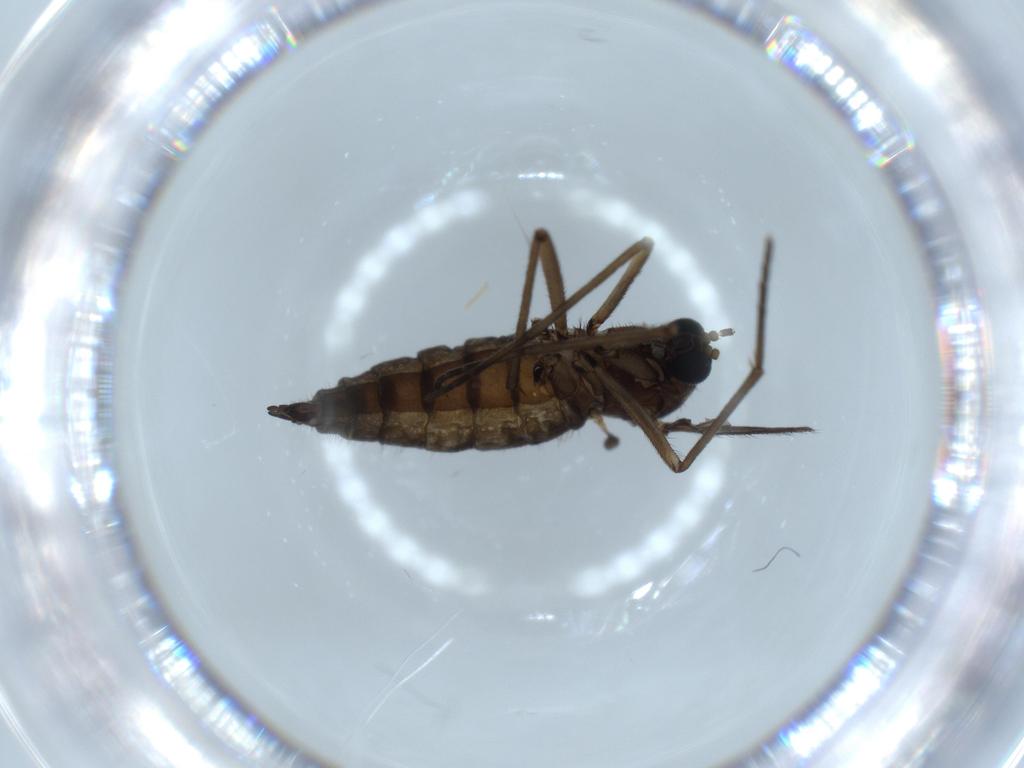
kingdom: Animalia
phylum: Arthropoda
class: Insecta
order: Diptera
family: Sciaridae
